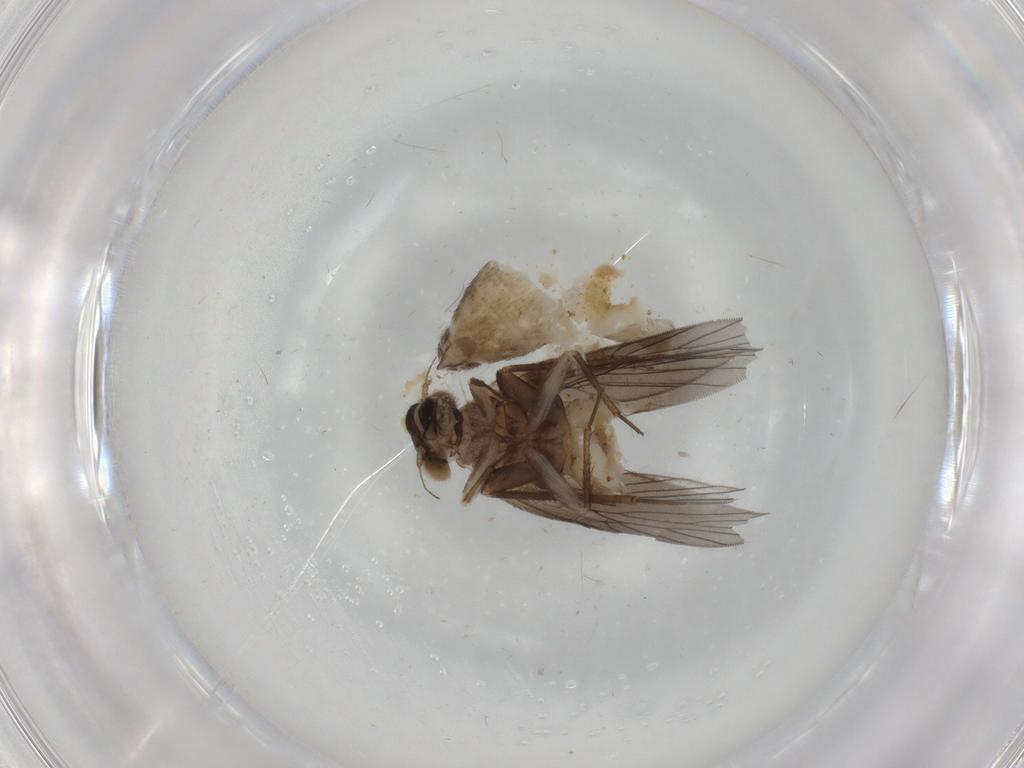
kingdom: Animalia
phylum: Arthropoda
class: Insecta
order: Psocodea
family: Lepidopsocidae
